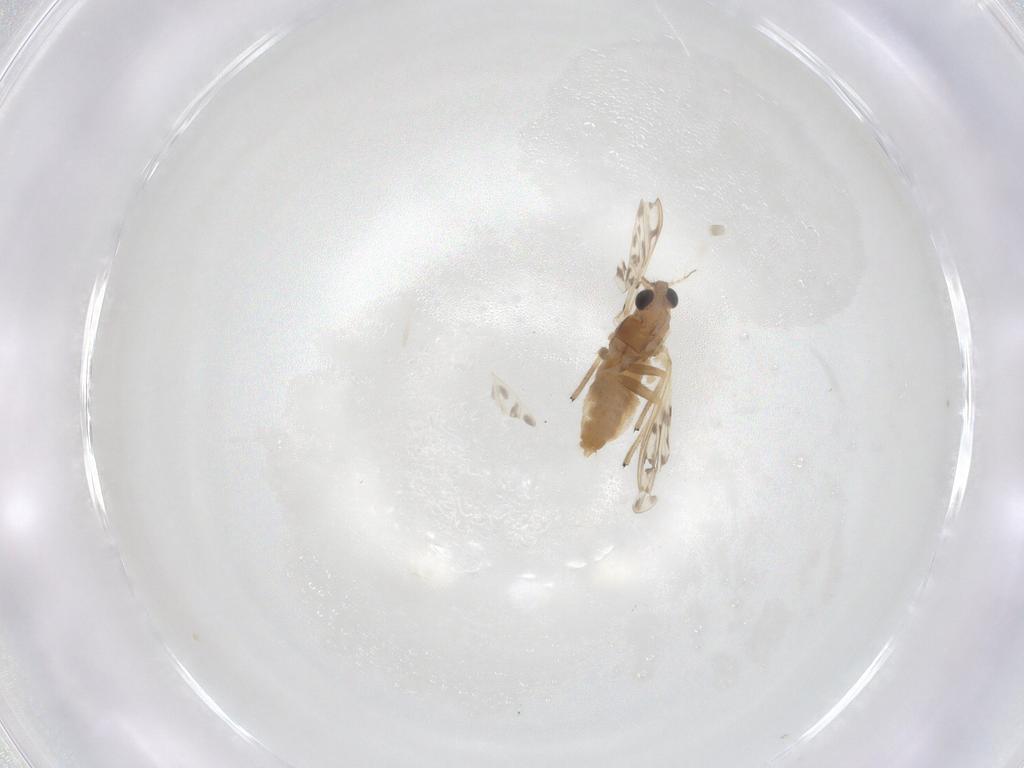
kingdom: Animalia
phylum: Arthropoda
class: Insecta
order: Diptera
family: Chironomidae
